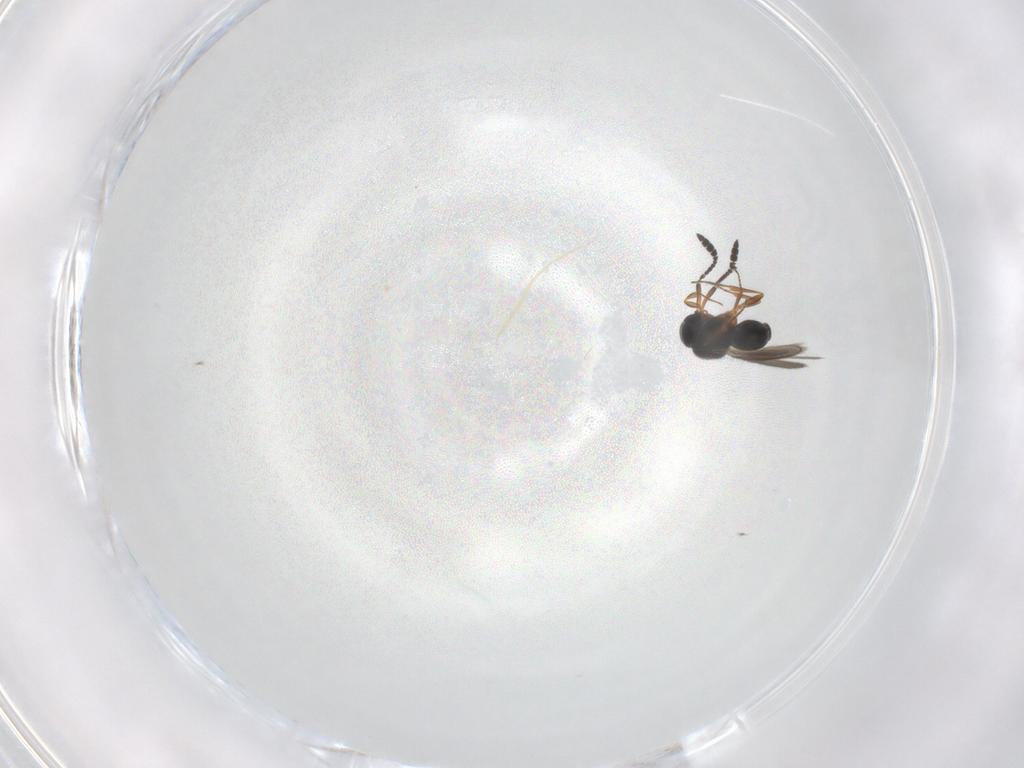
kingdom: Animalia
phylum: Arthropoda
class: Insecta
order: Hymenoptera
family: Scelionidae
